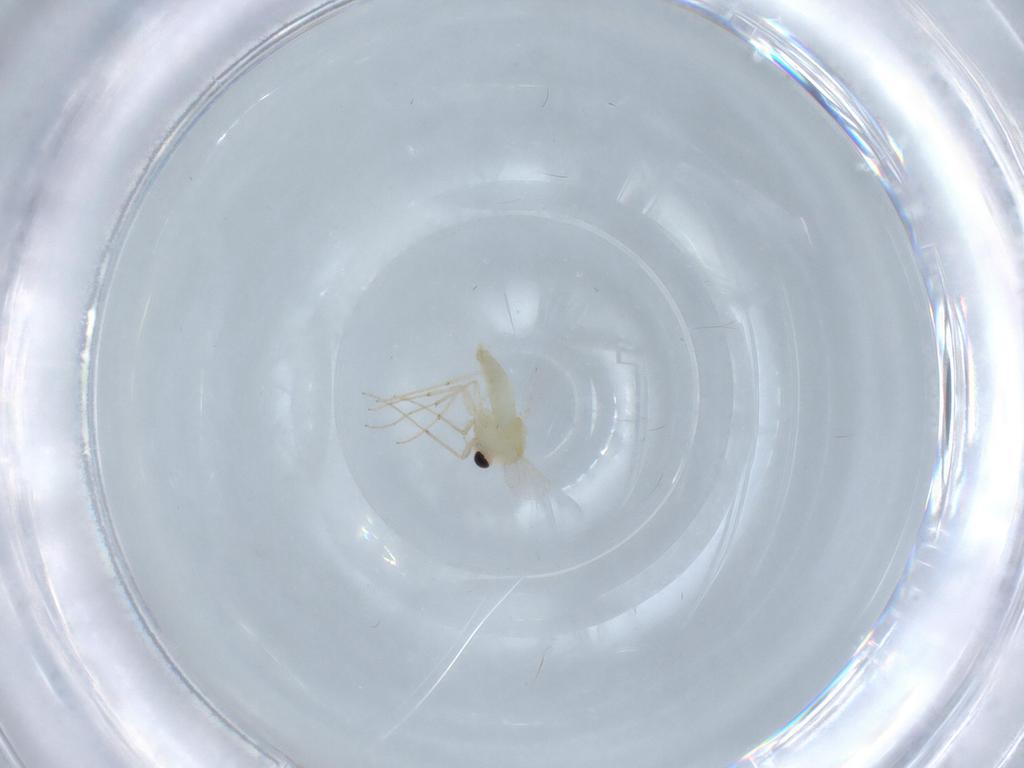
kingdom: Animalia
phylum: Arthropoda
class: Insecta
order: Diptera
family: Chironomidae
